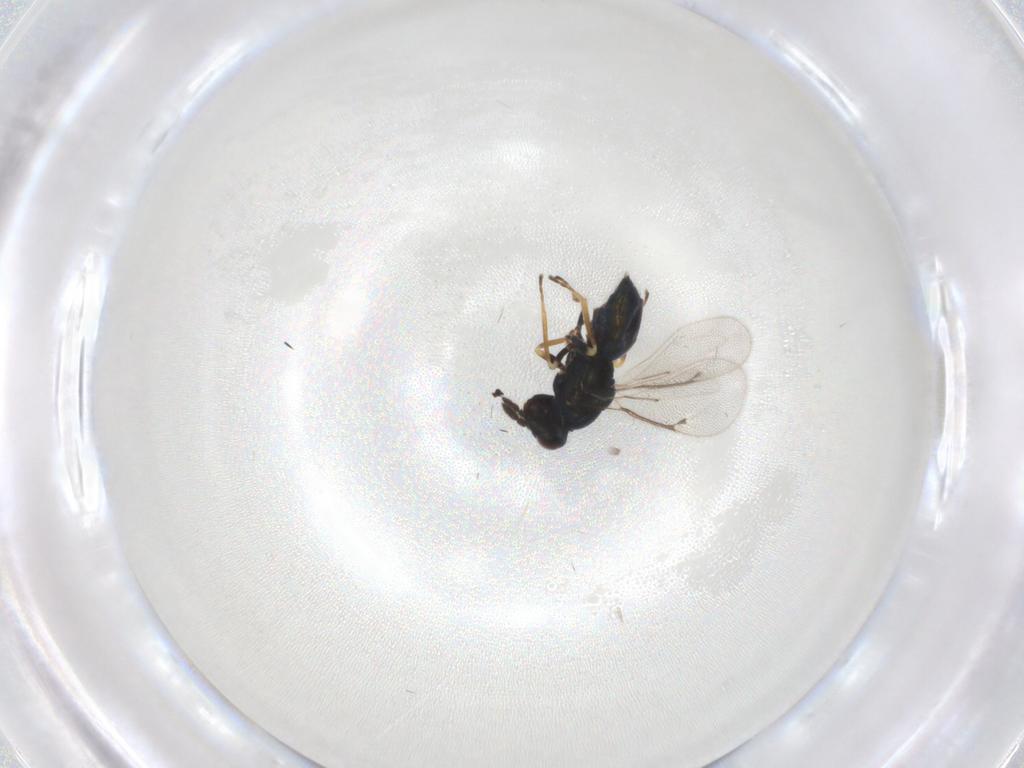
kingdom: Animalia
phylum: Arthropoda
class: Insecta
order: Hymenoptera
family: Eulophidae
